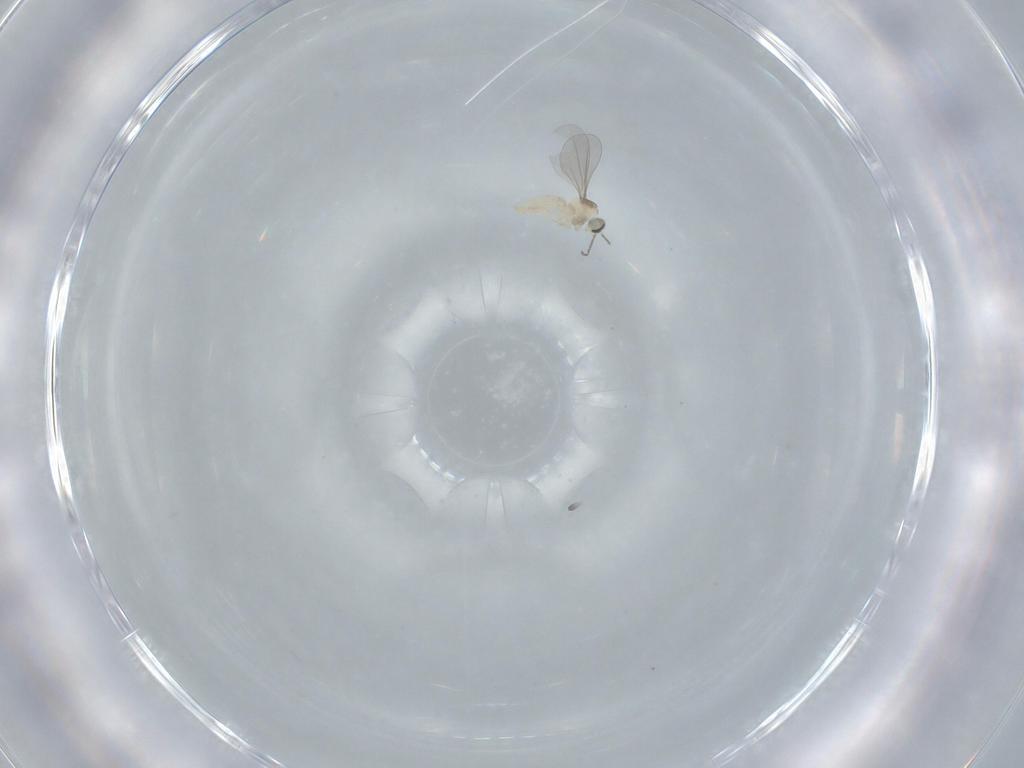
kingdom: Animalia
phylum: Arthropoda
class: Insecta
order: Diptera
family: Cecidomyiidae
